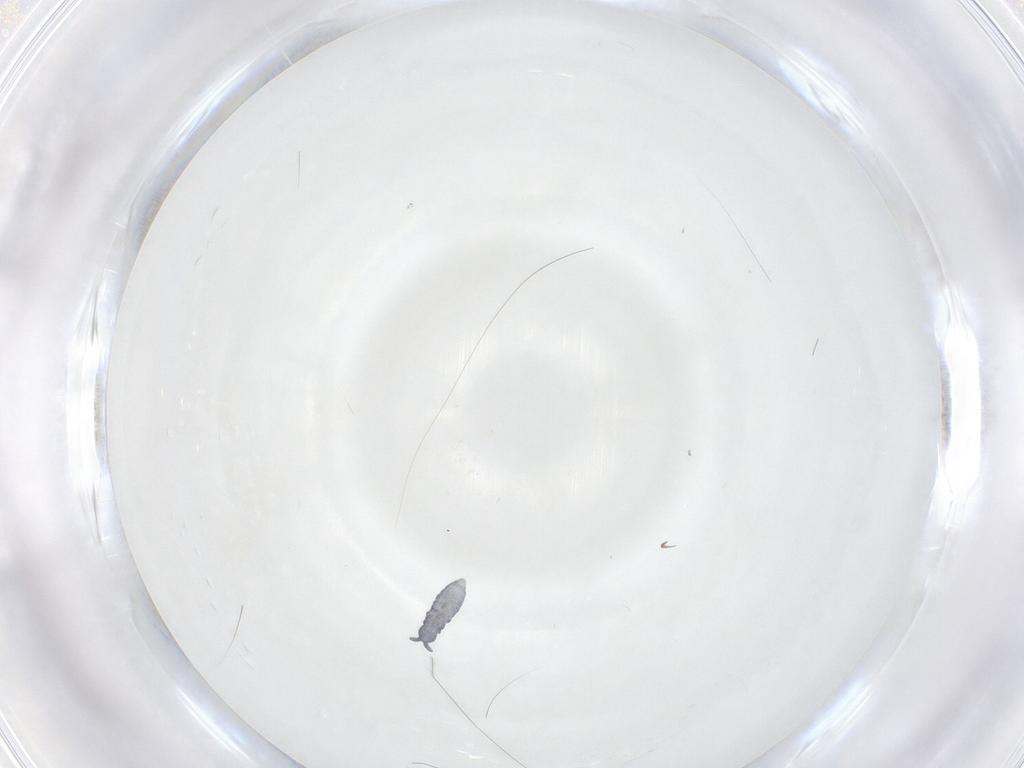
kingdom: Animalia
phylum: Arthropoda
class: Collembola
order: Poduromorpha
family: Hypogastruridae
